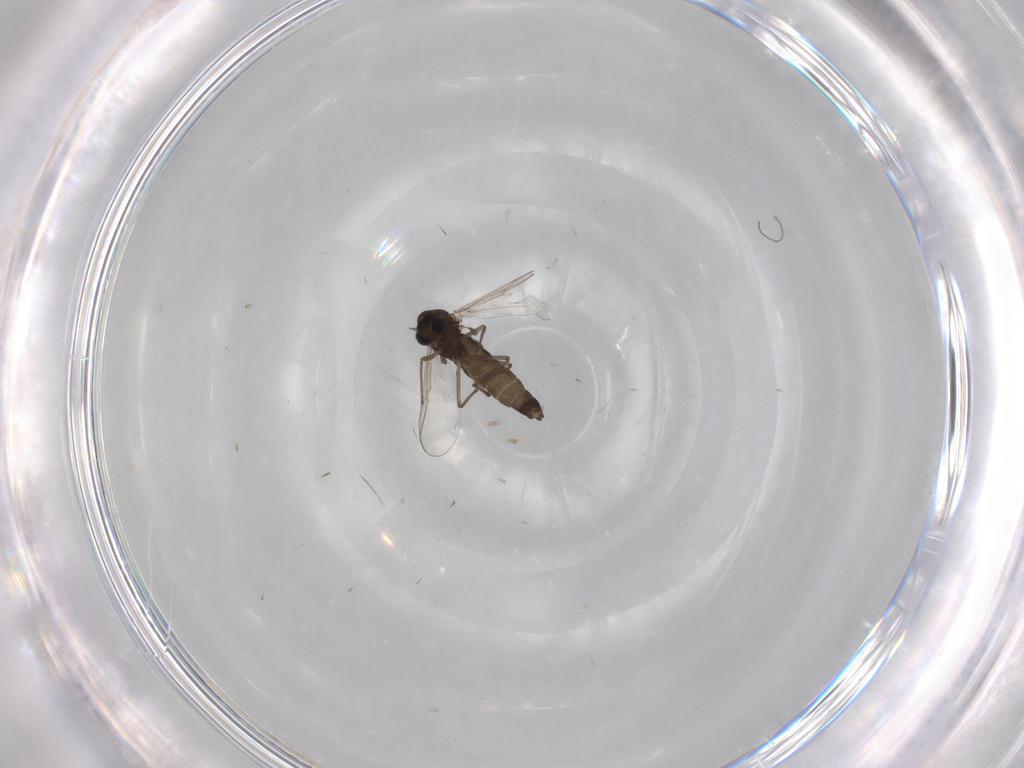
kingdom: Animalia
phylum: Arthropoda
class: Insecta
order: Diptera
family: Chironomidae
